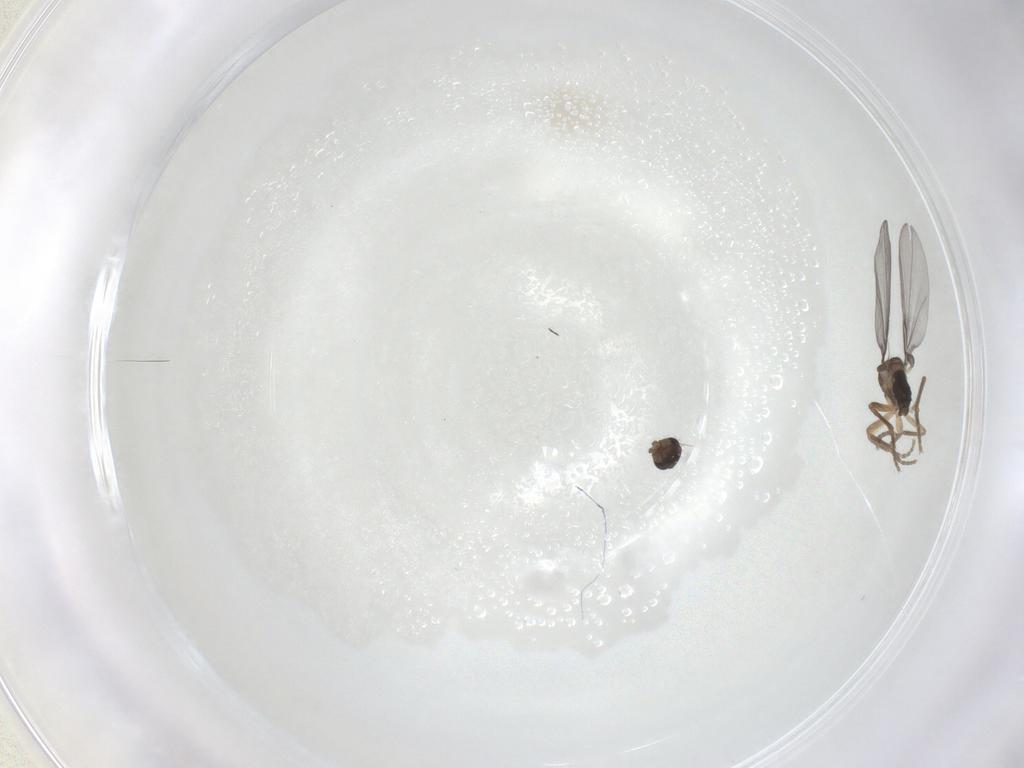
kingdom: Animalia
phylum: Arthropoda
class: Insecta
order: Diptera
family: Phoridae
